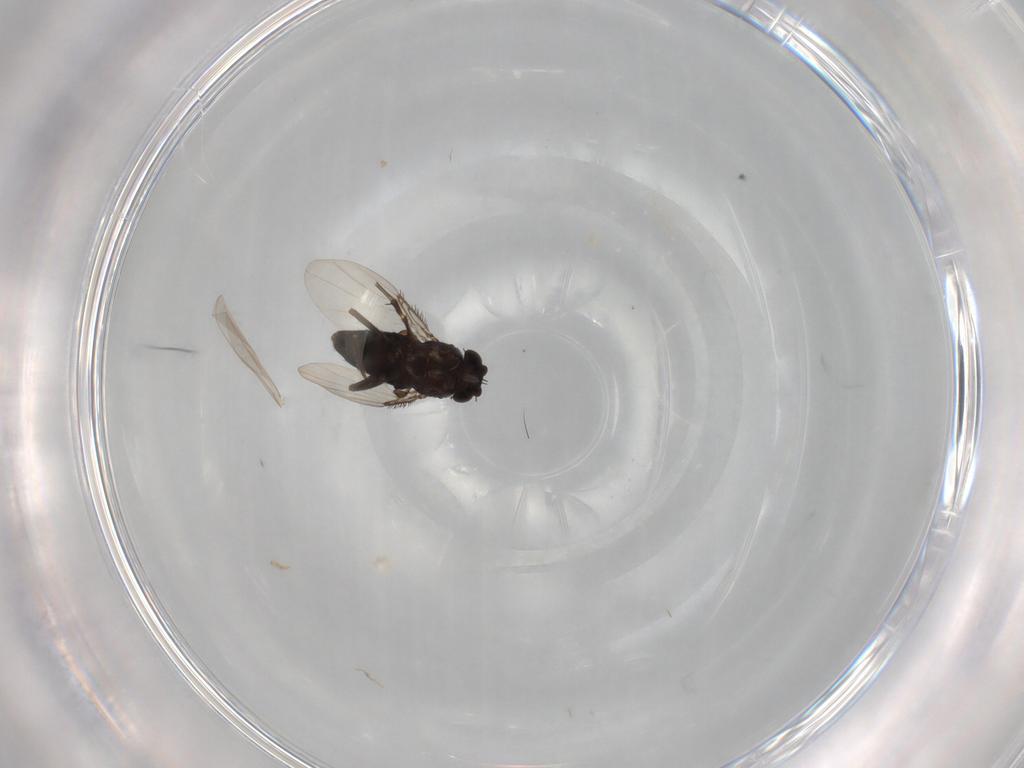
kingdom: Animalia
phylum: Arthropoda
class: Insecta
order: Diptera
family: Phoridae
